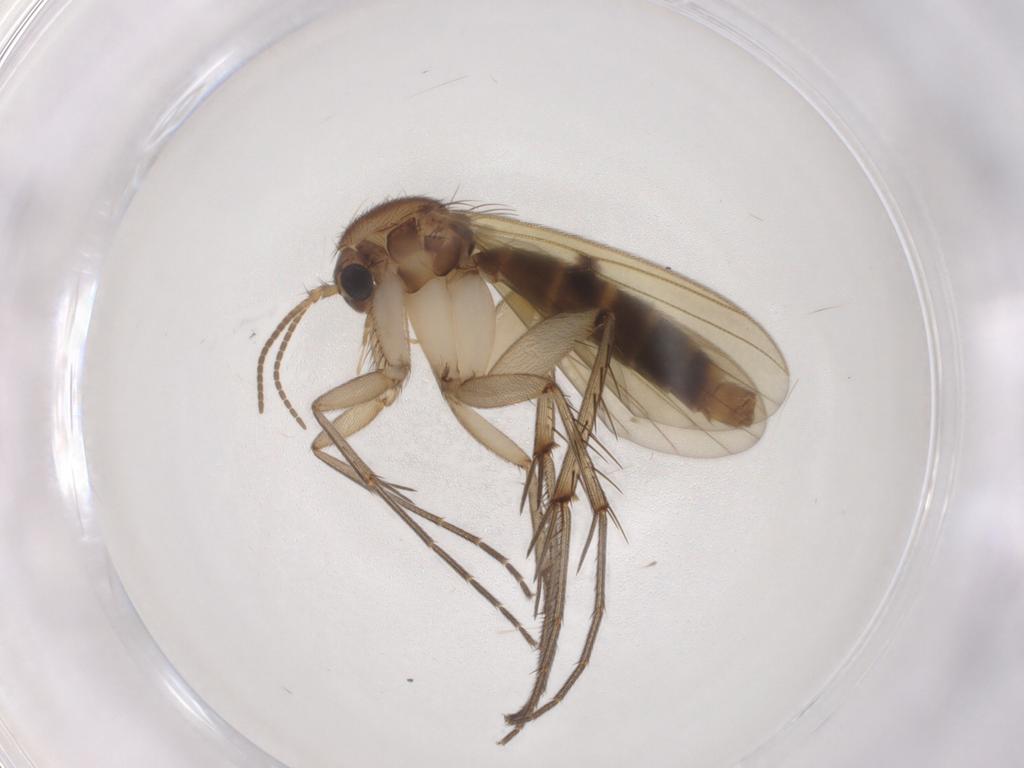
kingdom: Animalia
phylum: Arthropoda
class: Insecta
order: Diptera
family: Mycetophilidae
